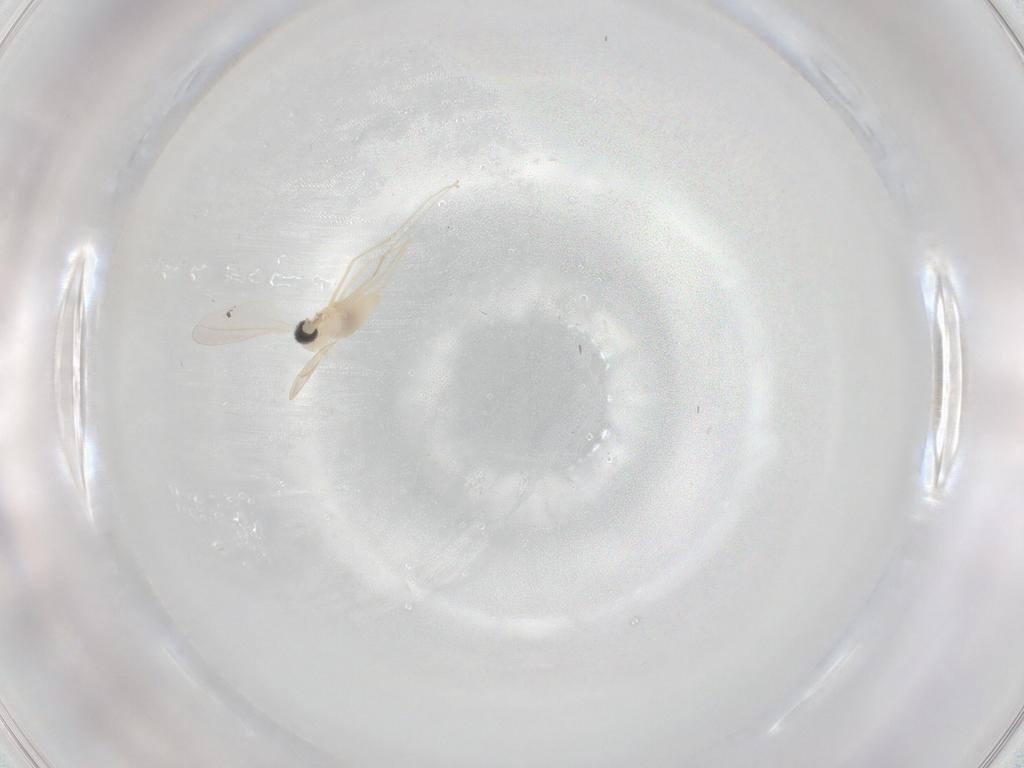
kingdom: Animalia
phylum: Arthropoda
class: Insecta
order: Diptera
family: Cecidomyiidae
